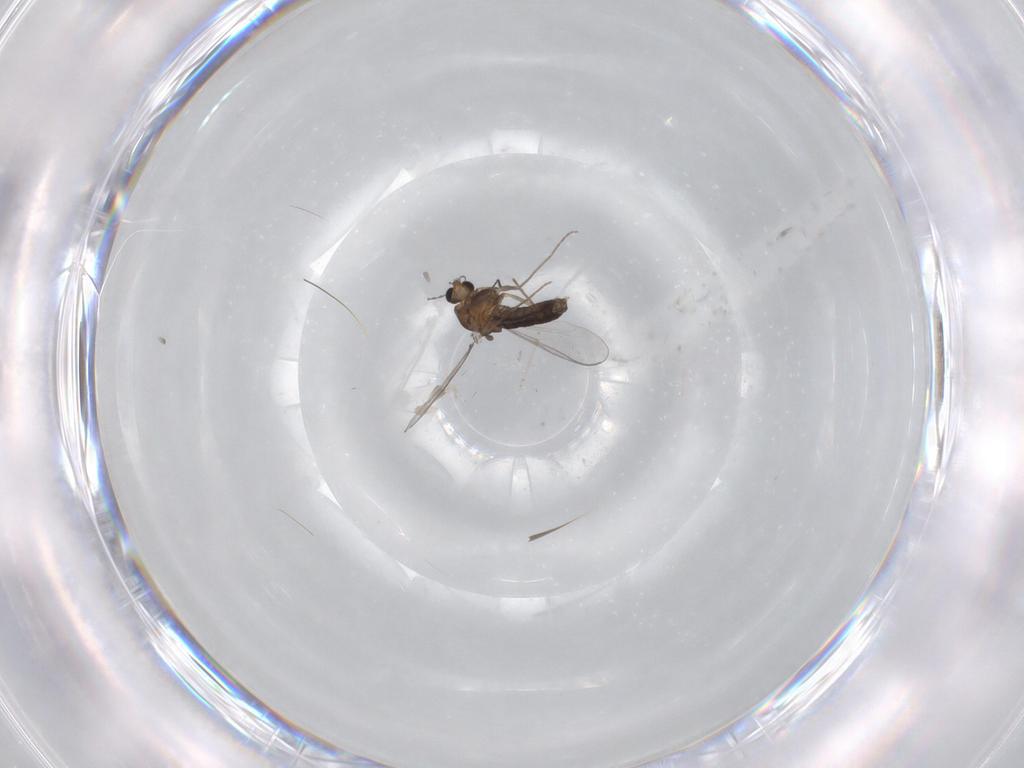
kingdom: Animalia
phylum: Arthropoda
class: Insecta
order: Diptera
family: Chironomidae
